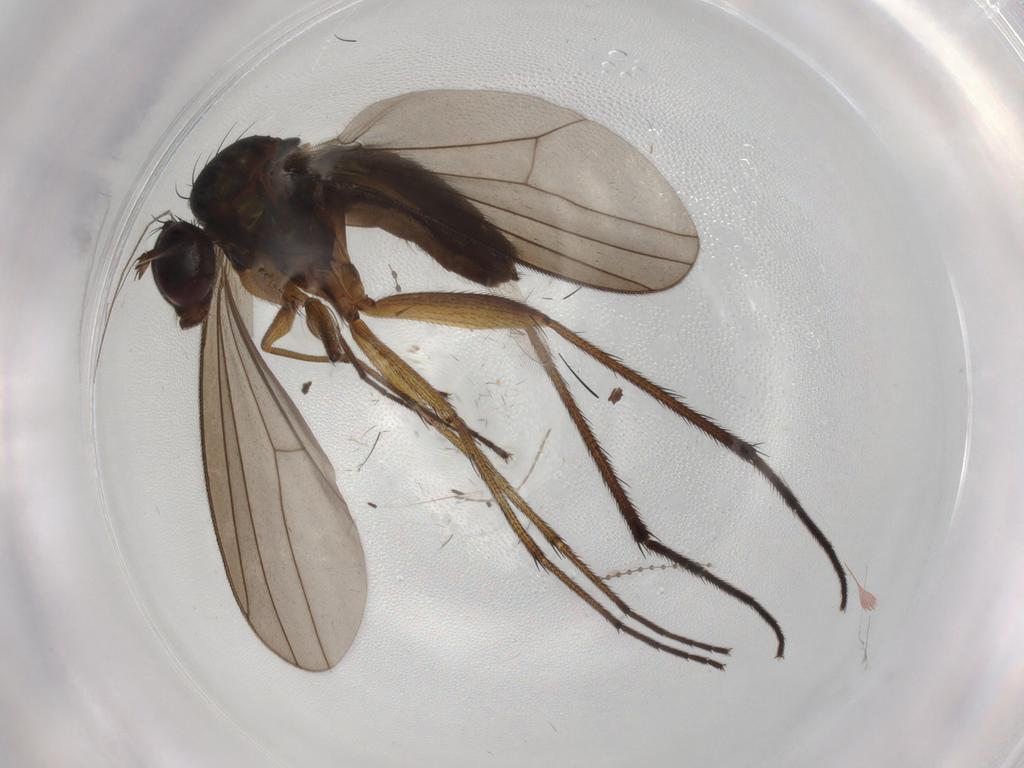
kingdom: Animalia
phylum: Arthropoda
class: Insecta
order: Diptera
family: Dolichopodidae
